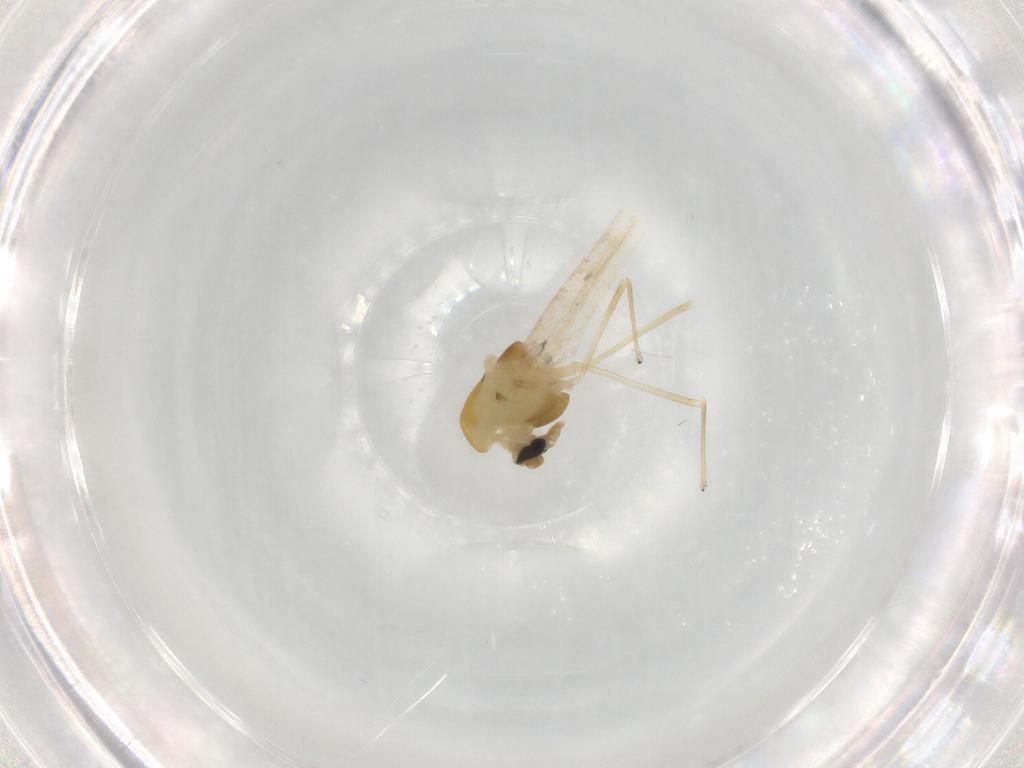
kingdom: Animalia
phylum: Arthropoda
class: Insecta
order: Diptera
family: Chironomidae
